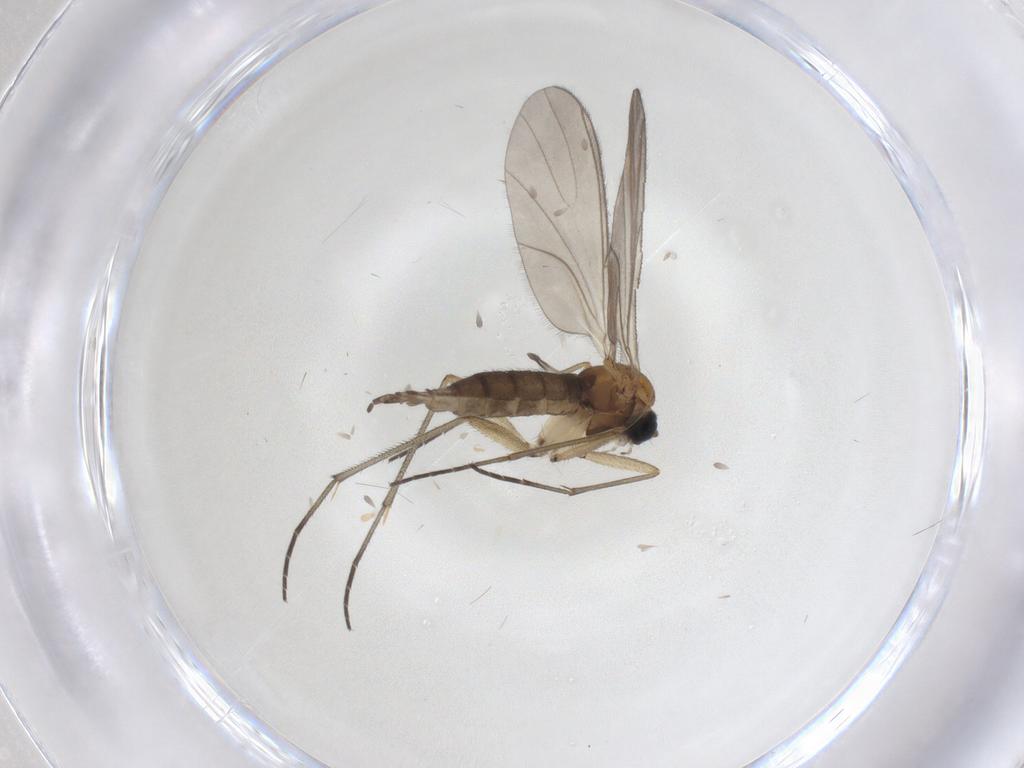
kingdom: Animalia
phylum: Arthropoda
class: Insecta
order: Diptera
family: Sciaridae
